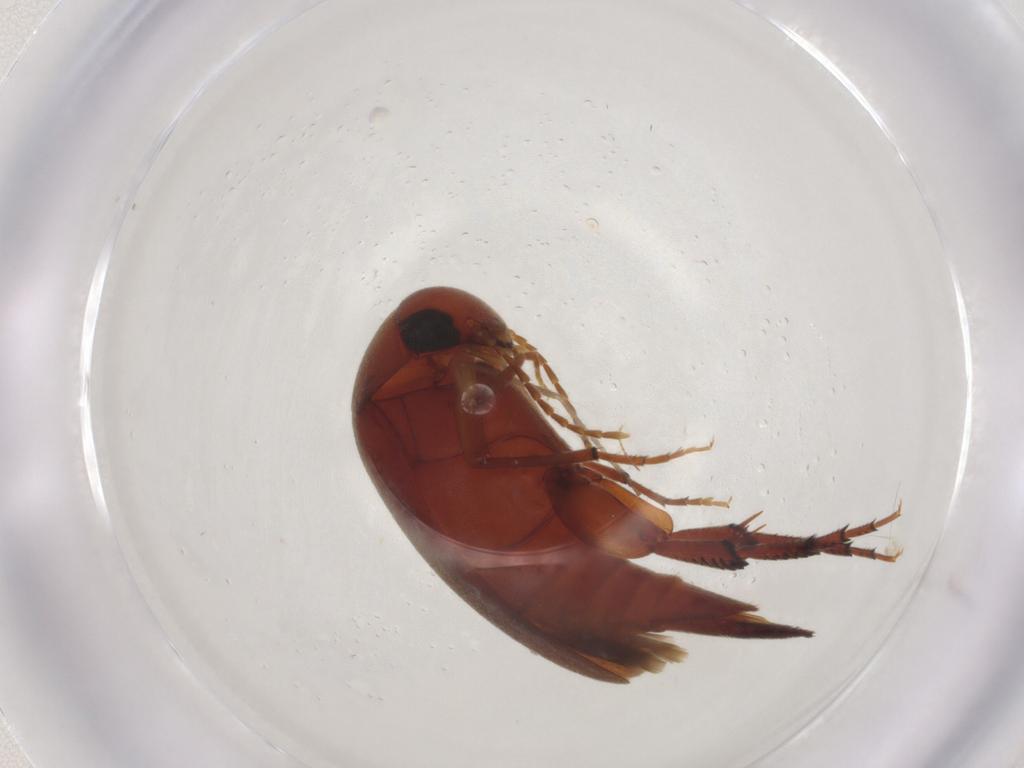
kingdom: Animalia
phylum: Arthropoda
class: Insecta
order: Coleoptera
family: Mordellidae
